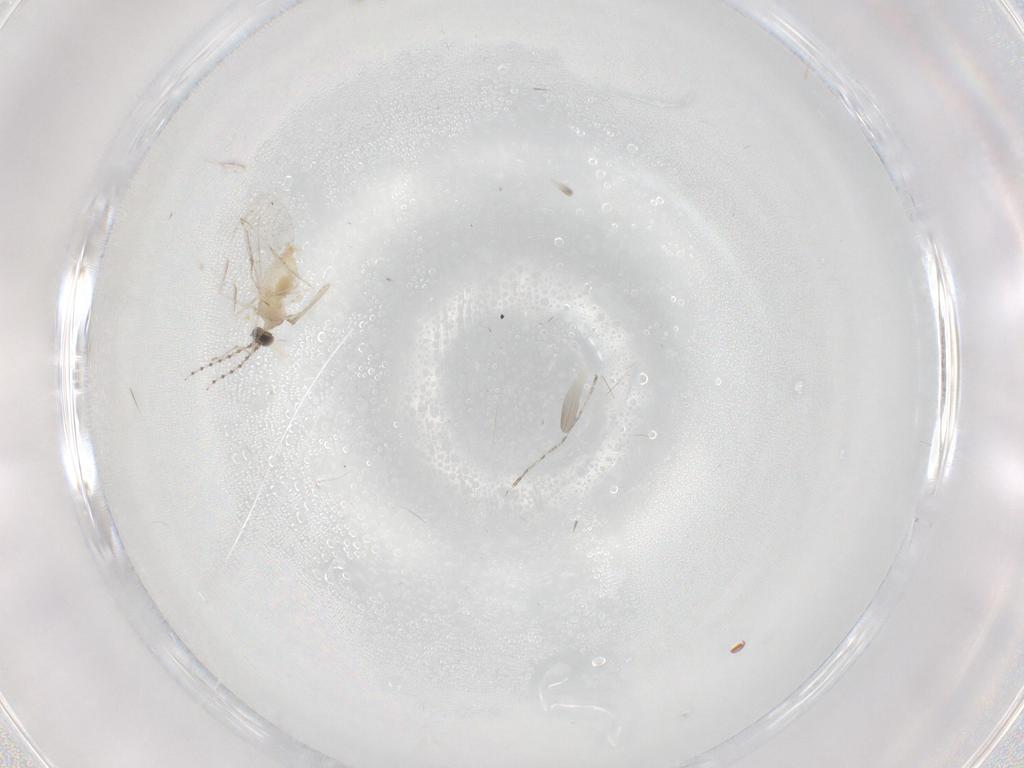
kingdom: Animalia
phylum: Arthropoda
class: Insecta
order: Diptera
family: Cecidomyiidae
